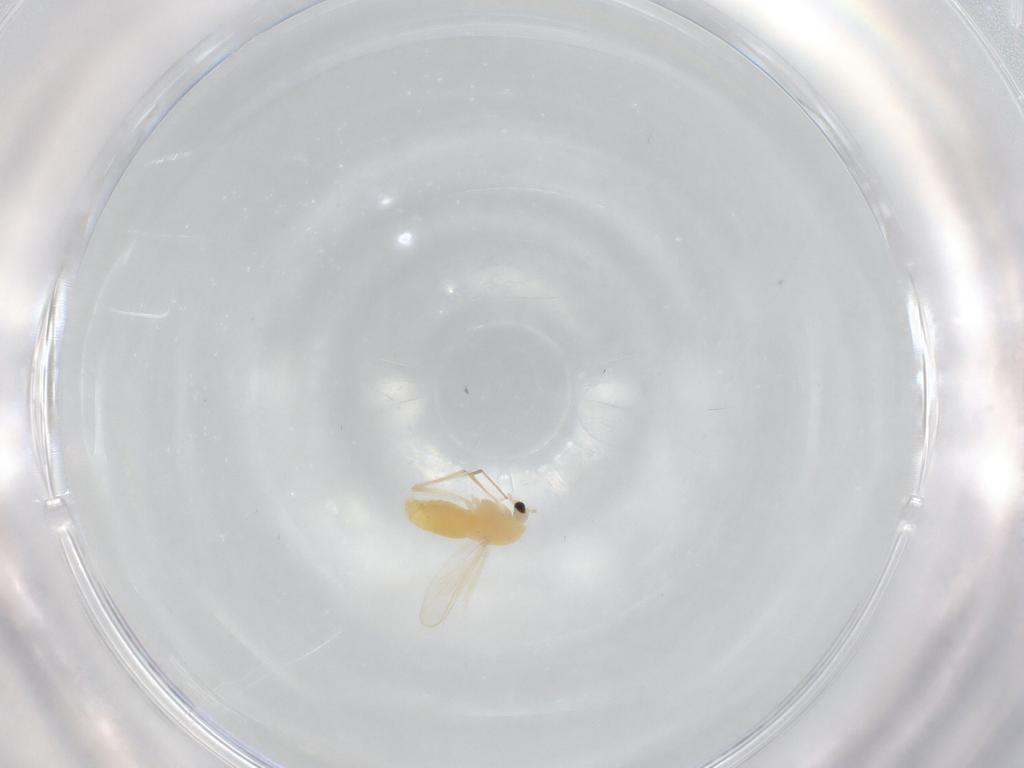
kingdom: Animalia
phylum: Arthropoda
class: Insecta
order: Diptera
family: Chironomidae
